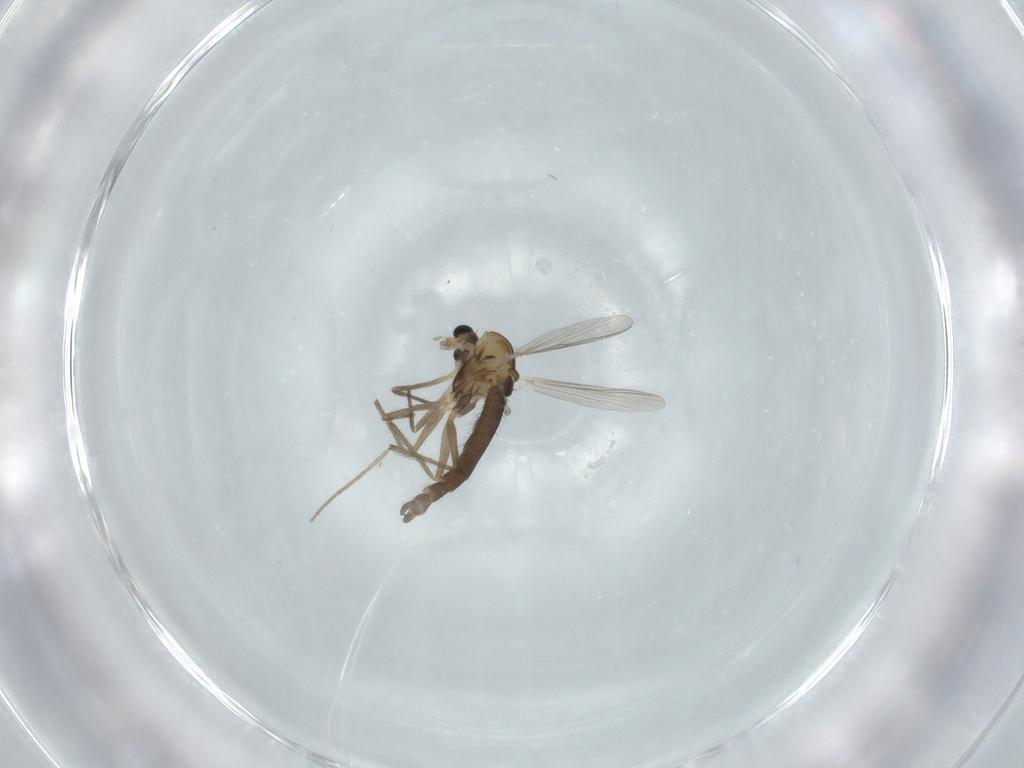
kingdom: Animalia
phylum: Arthropoda
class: Insecta
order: Diptera
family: Chironomidae
